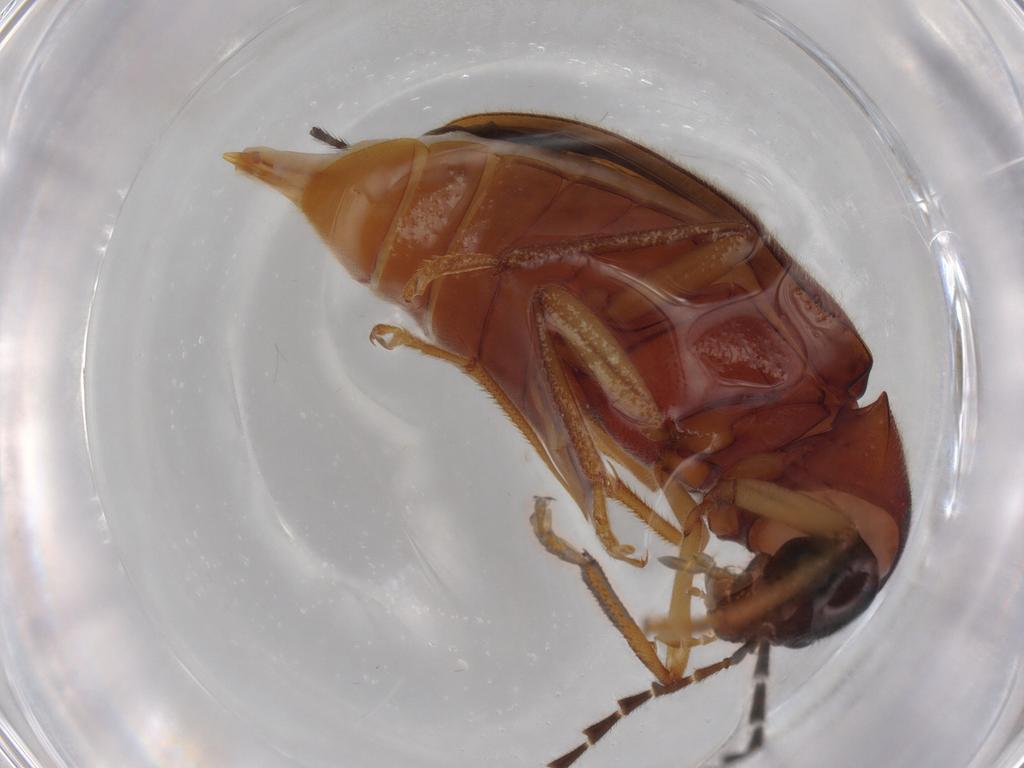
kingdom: Animalia
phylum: Arthropoda
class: Insecta
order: Coleoptera
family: Ptilodactylidae
